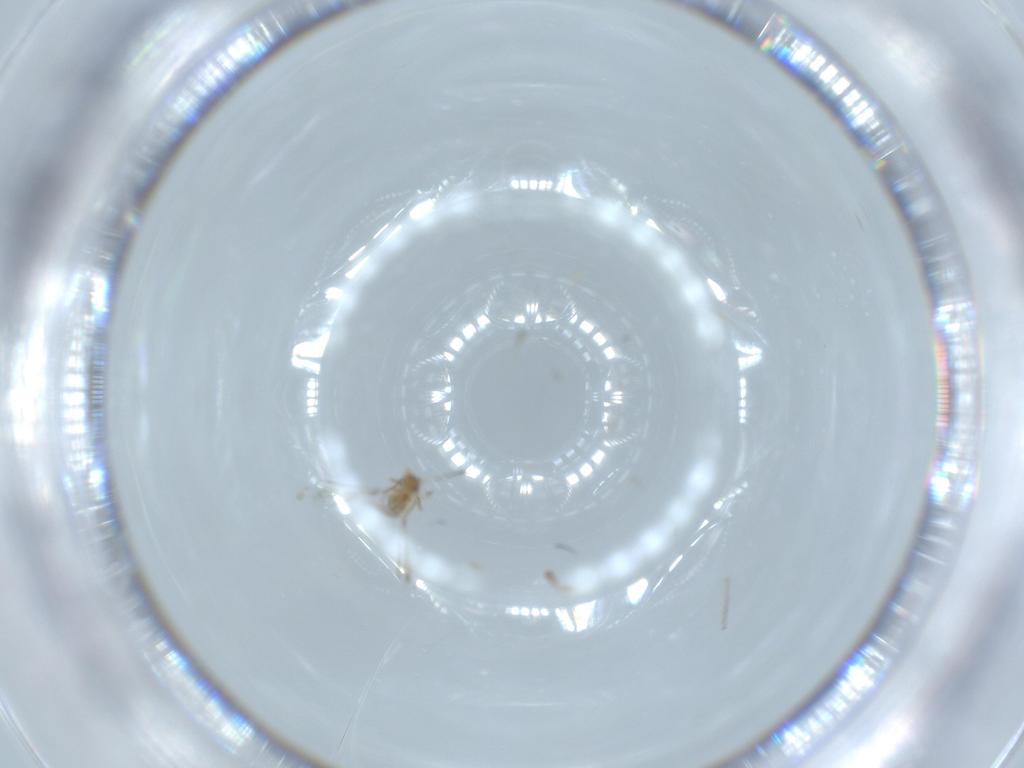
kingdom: Animalia
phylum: Arthropoda
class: Insecta
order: Hymenoptera
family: Mymaridae
